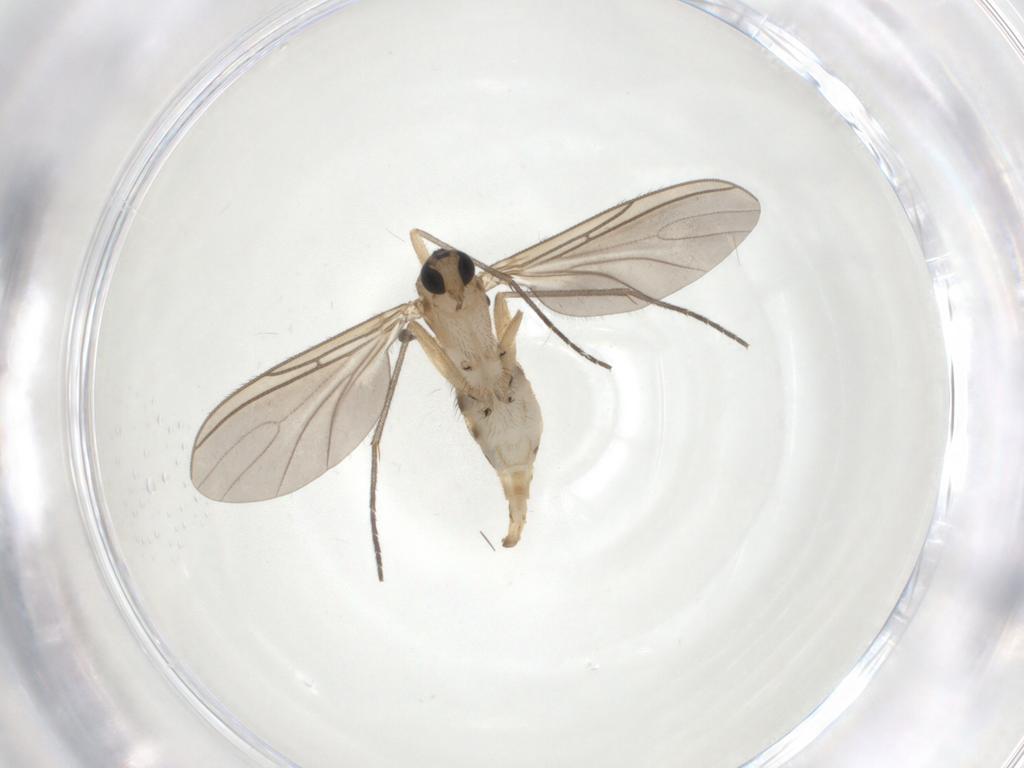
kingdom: Animalia
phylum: Arthropoda
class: Insecta
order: Diptera
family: Sciaridae
